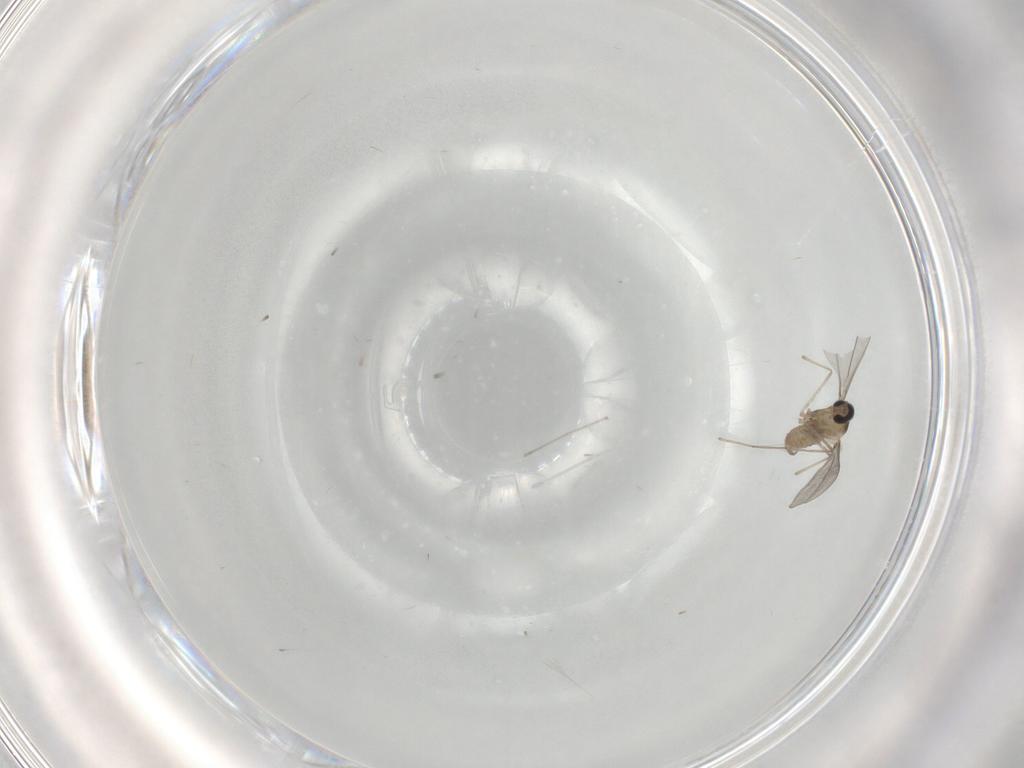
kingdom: Animalia
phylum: Arthropoda
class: Insecta
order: Diptera
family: Cecidomyiidae
